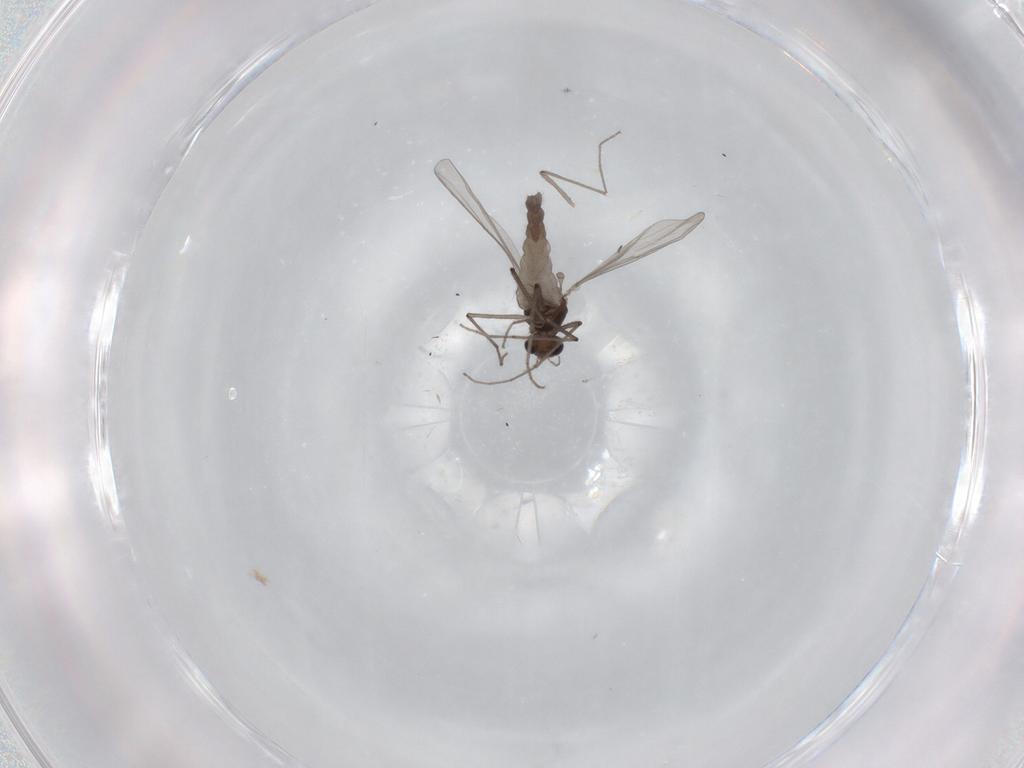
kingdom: Animalia
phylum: Arthropoda
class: Insecta
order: Diptera
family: Chironomidae
